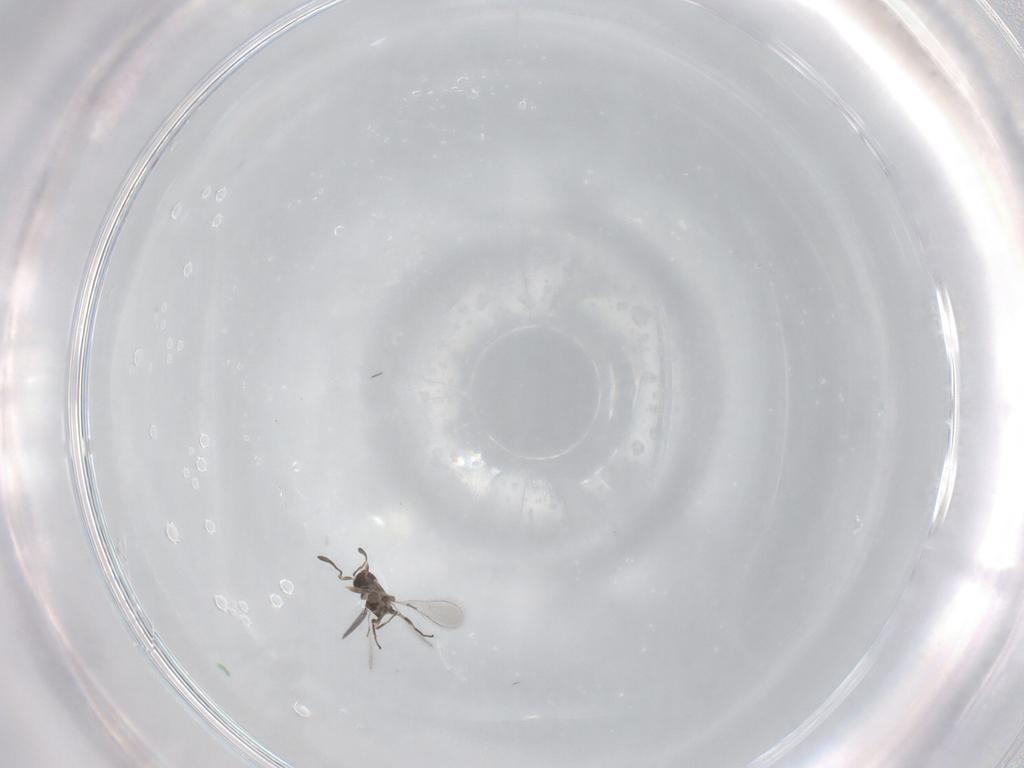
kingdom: Animalia
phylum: Arthropoda
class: Insecta
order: Hymenoptera
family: Mymaridae
